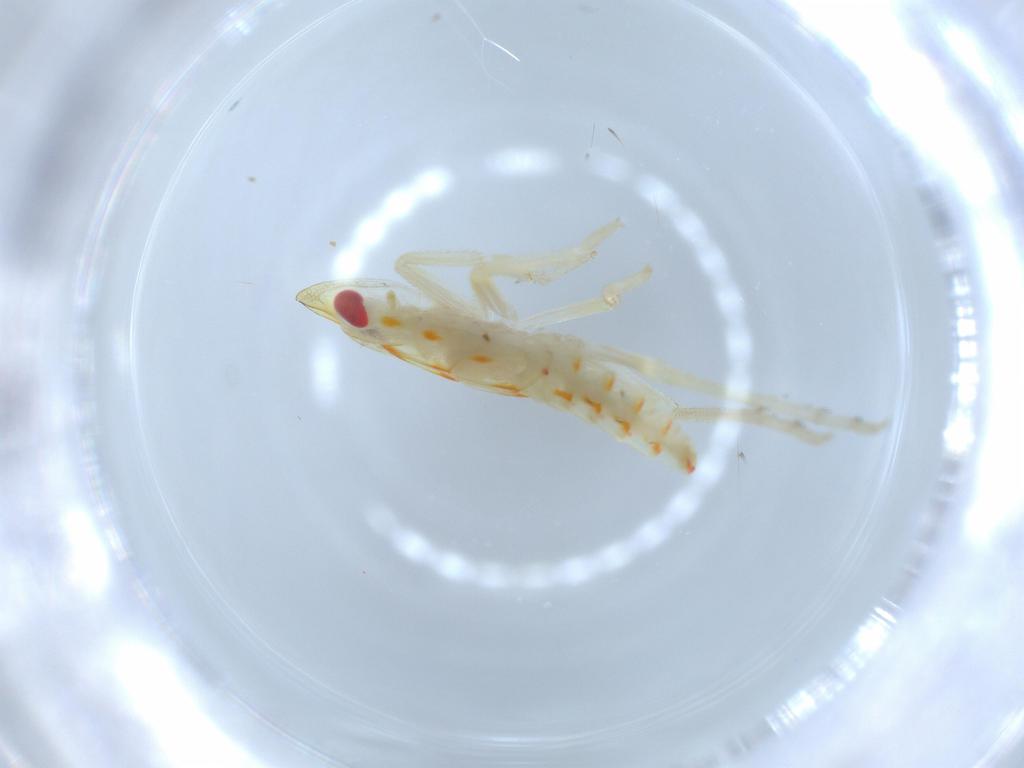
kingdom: Animalia
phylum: Arthropoda
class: Insecta
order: Hemiptera
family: Tropiduchidae
